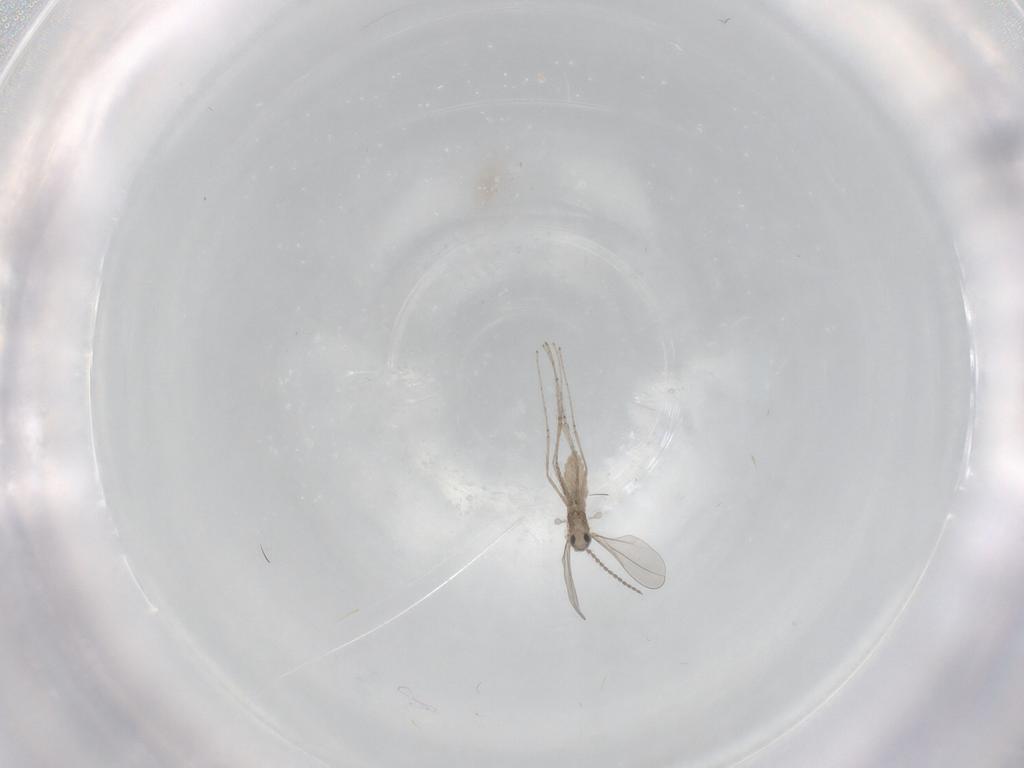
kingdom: Animalia
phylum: Arthropoda
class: Insecta
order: Diptera
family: Cecidomyiidae
